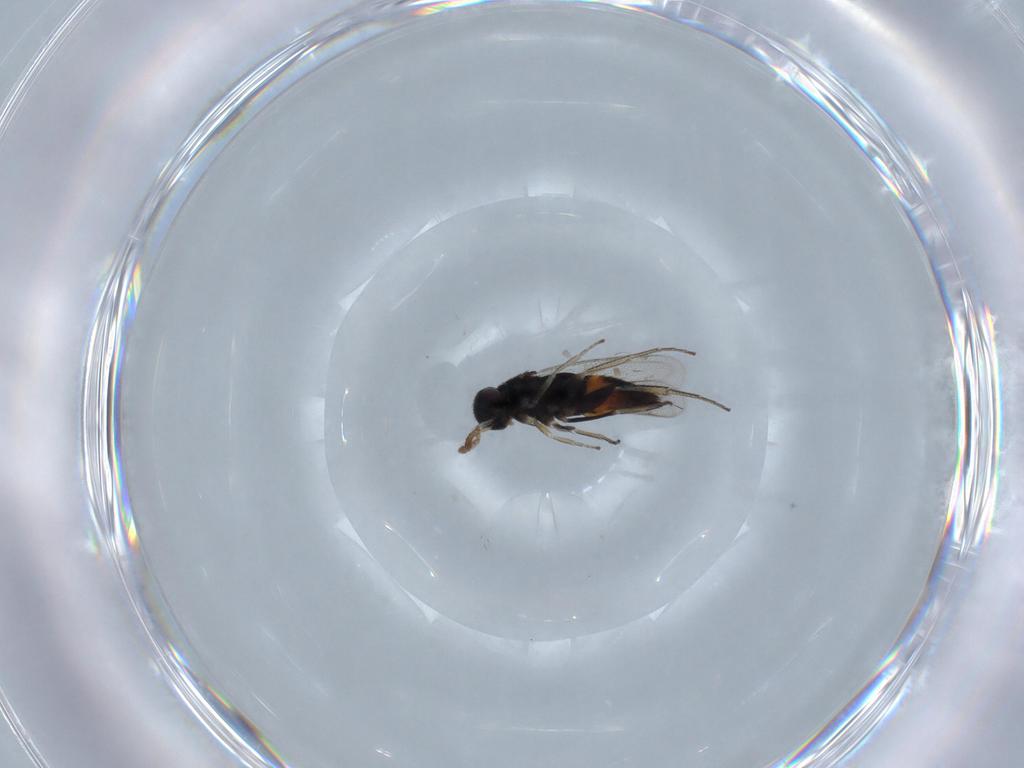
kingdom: Animalia
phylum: Arthropoda
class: Insecta
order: Hymenoptera
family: Eulophidae
